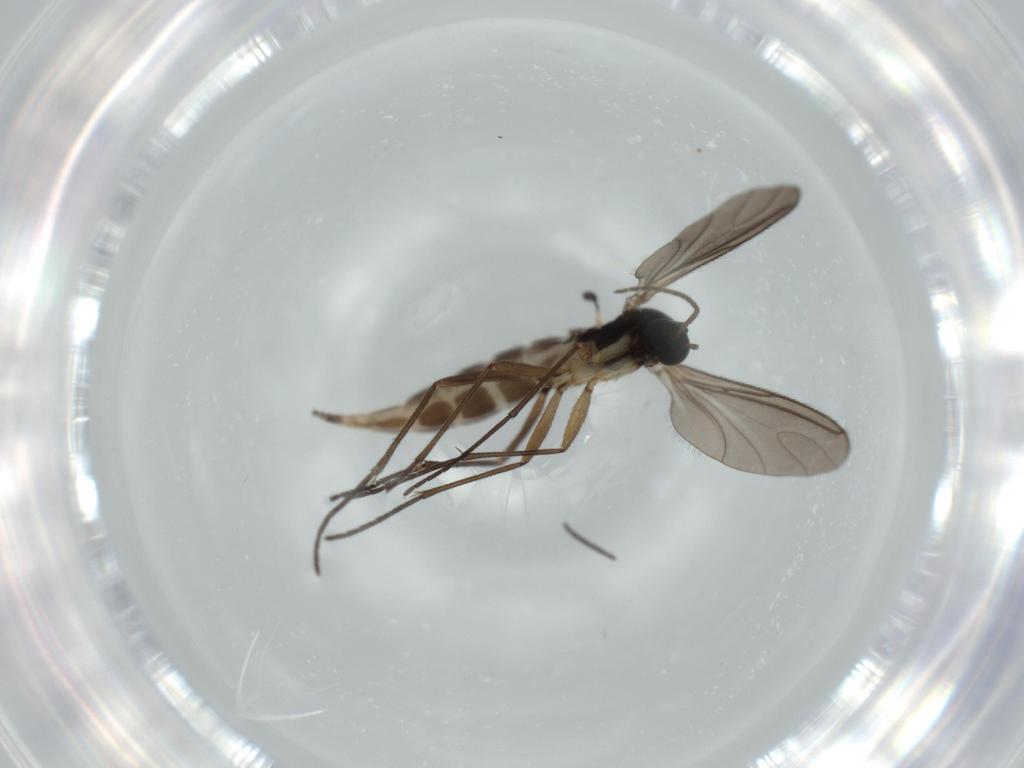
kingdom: Animalia
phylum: Arthropoda
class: Insecta
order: Diptera
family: Sciaridae
